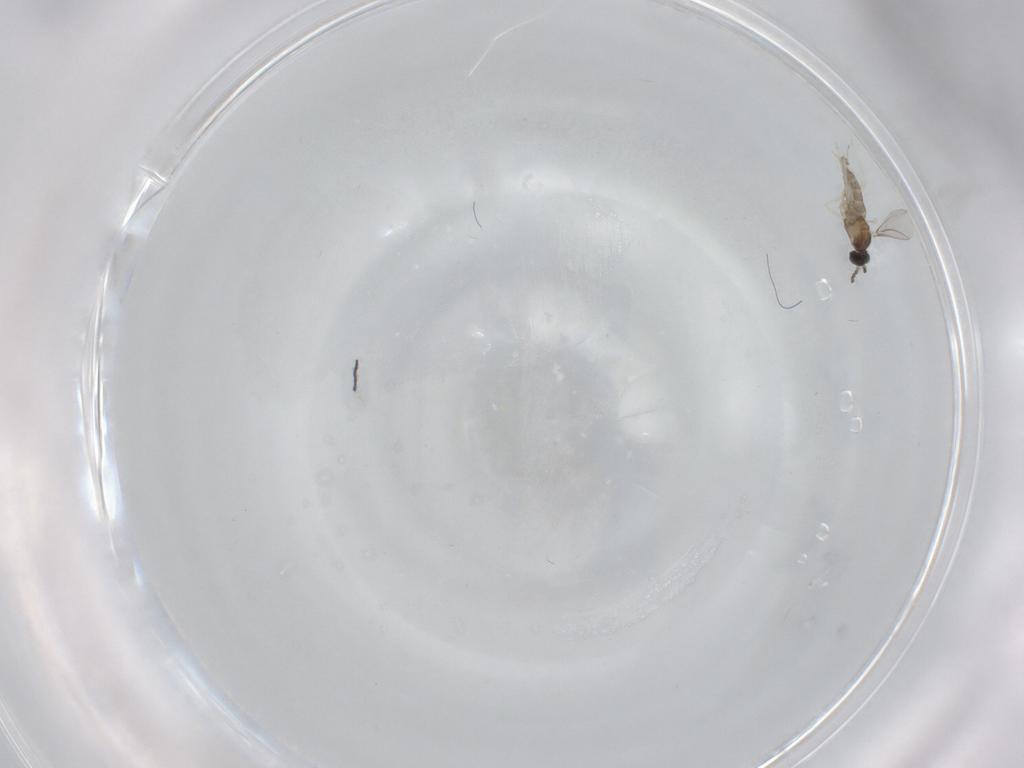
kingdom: Animalia
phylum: Arthropoda
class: Insecta
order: Diptera
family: Cecidomyiidae
